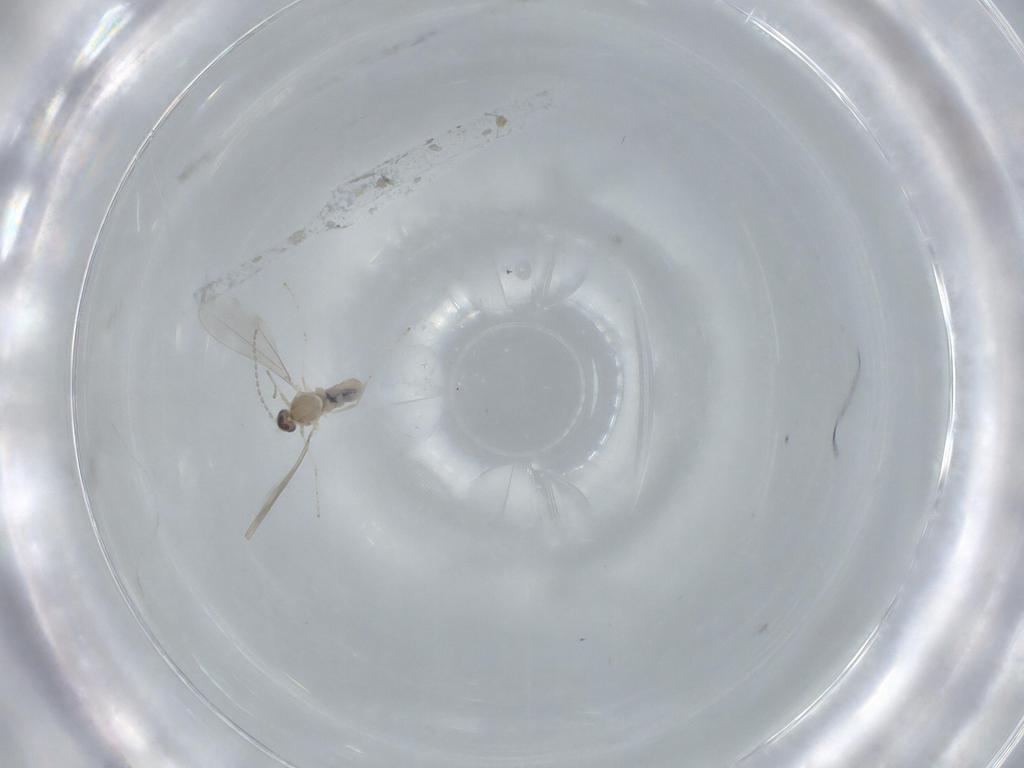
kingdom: Animalia
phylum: Arthropoda
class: Insecta
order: Diptera
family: Cecidomyiidae
